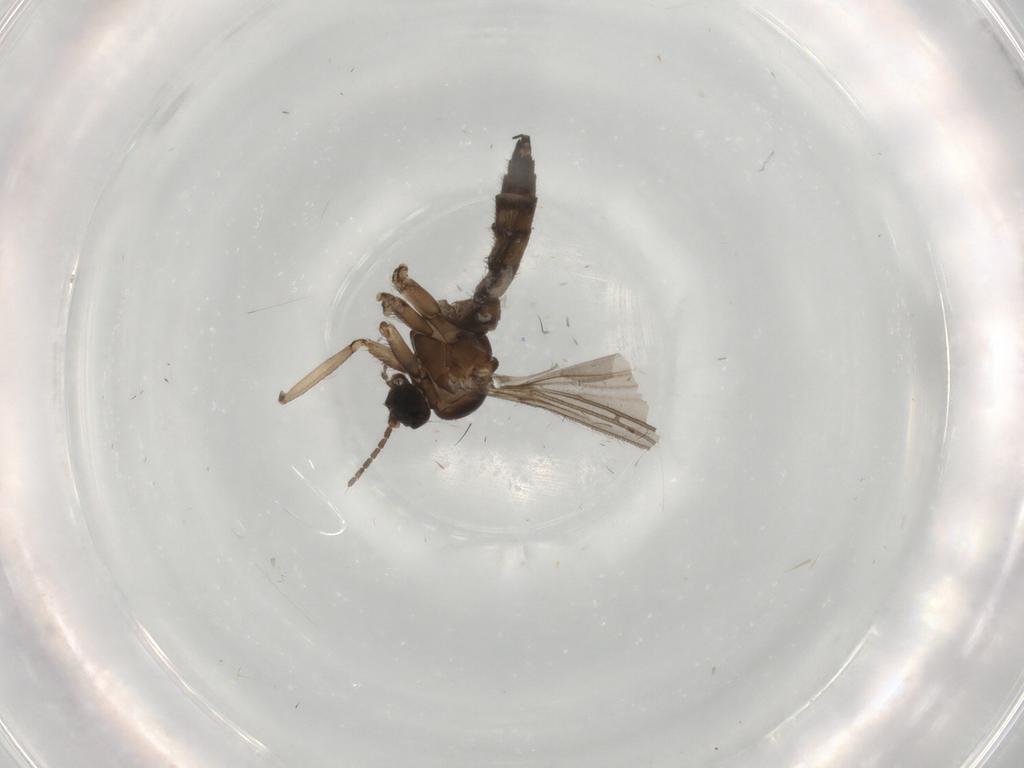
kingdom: Animalia
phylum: Arthropoda
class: Insecta
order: Diptera
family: Sciaridae
